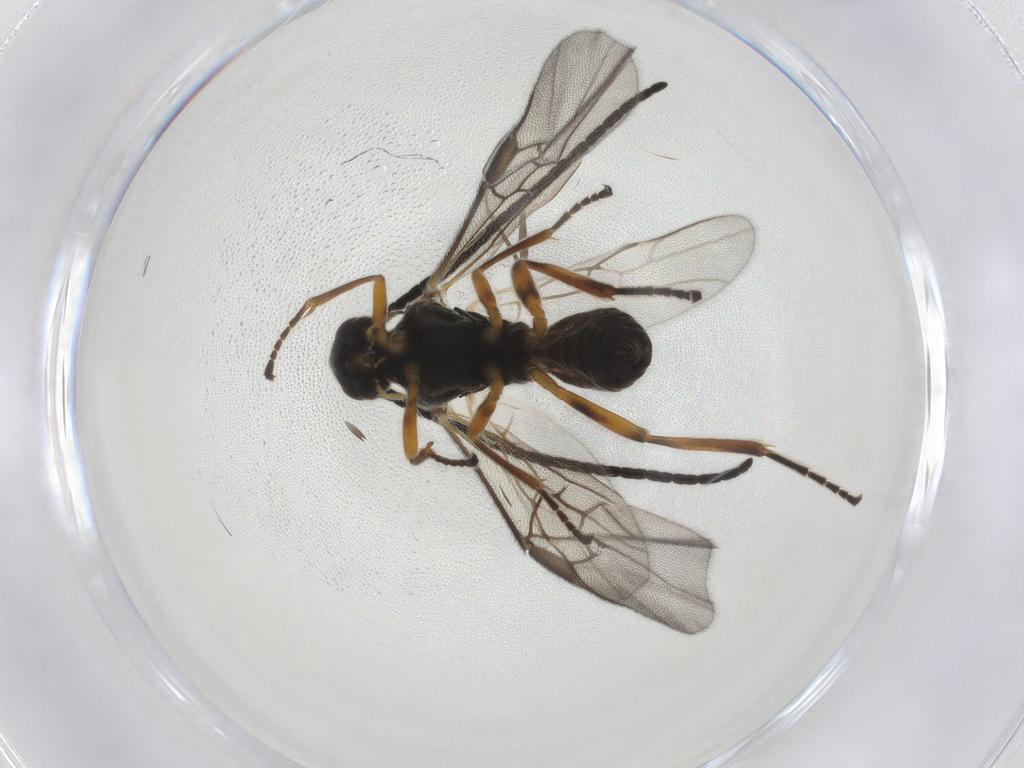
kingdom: Animalia
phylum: Arthropoda
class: Insecta
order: Hymenoptera
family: Braconidae
